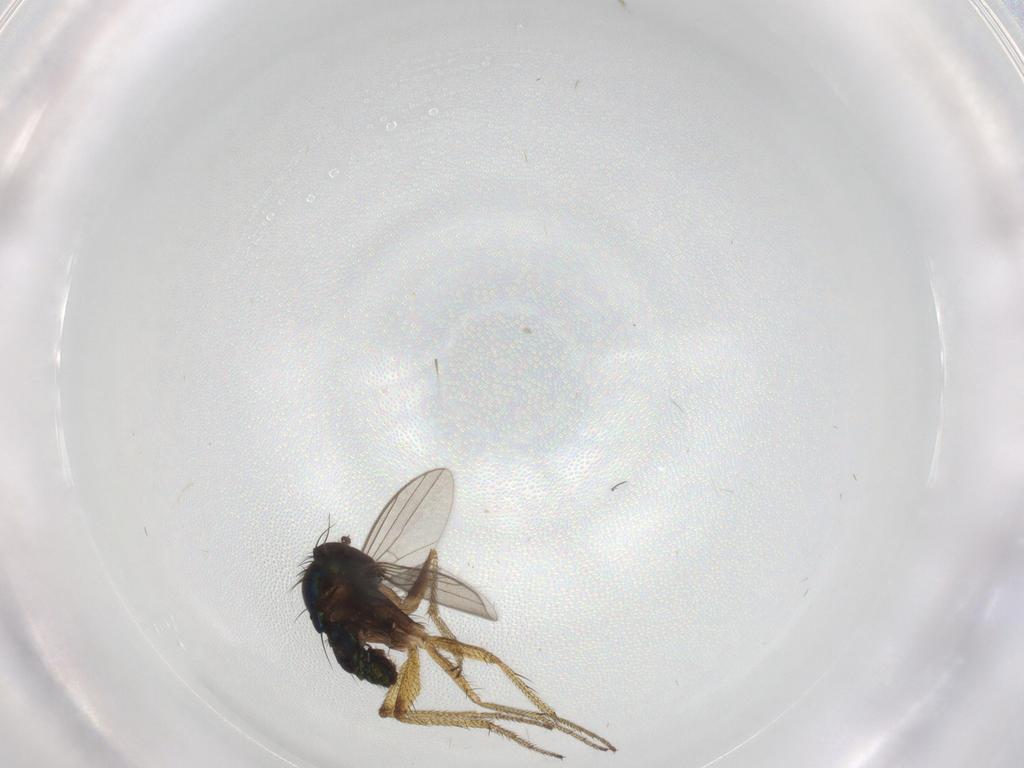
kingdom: Animalia
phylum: Arthropoda
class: Insecta
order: Diptera
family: Chironomidae
